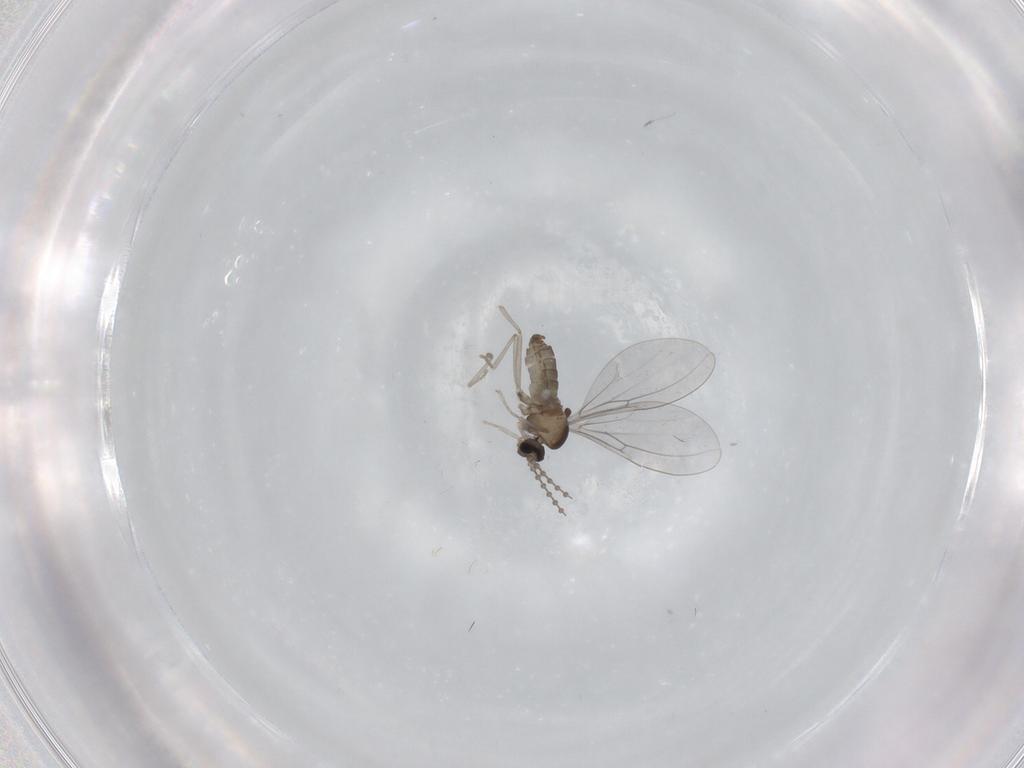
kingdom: Animalia
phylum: Arthropoda
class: Insecta
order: Diptera
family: Cecidomyiidae
